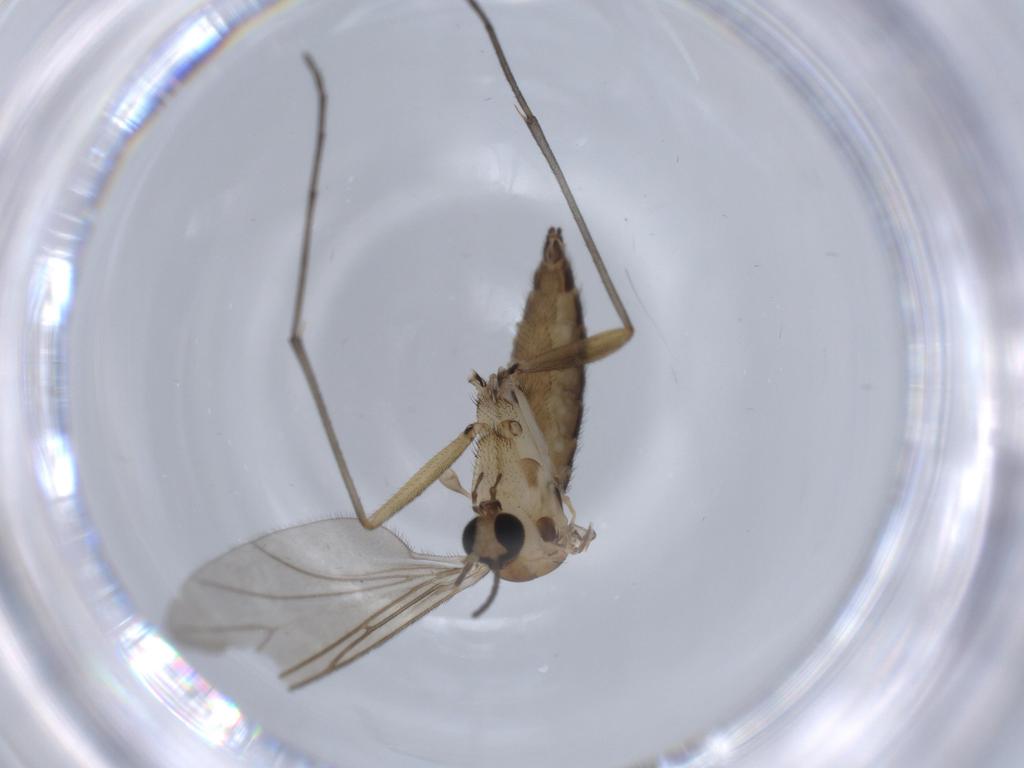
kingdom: Animalia
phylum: Arthropoda
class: Insecta
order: Diptera
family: Sciaridae
